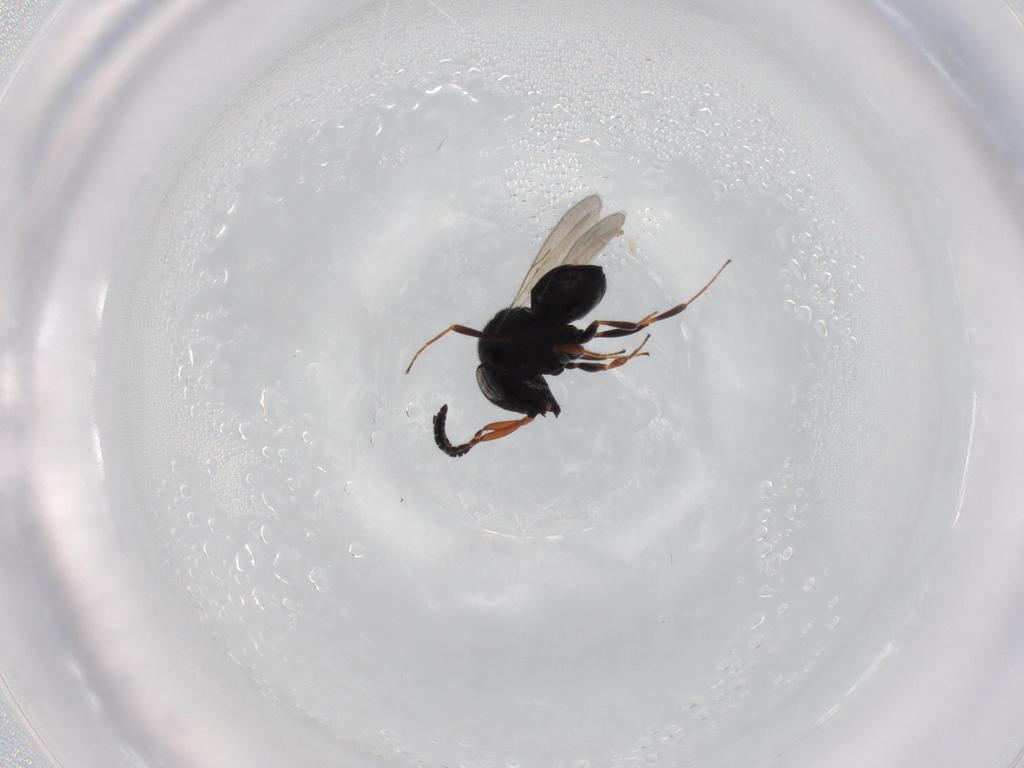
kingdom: Animalia
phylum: Arthropoda
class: Insecta
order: Hymenoptera
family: Scelionidae
